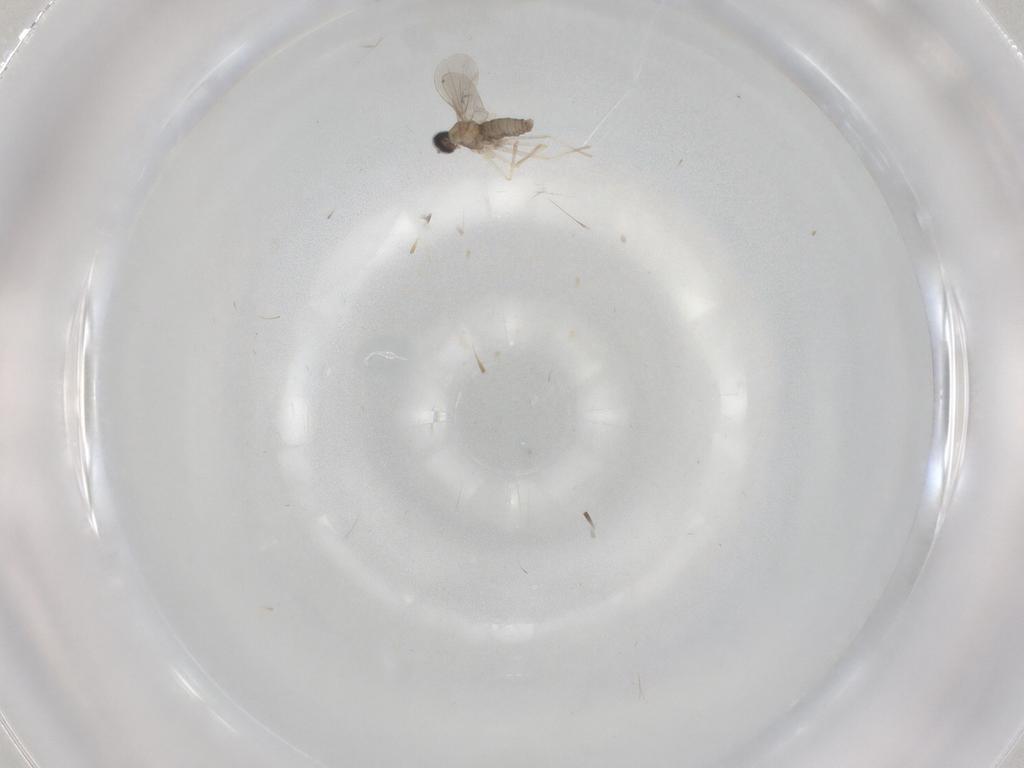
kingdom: Animalia
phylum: Arthropoda
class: Insecta
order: Diptera
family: Cecidomyiidae
